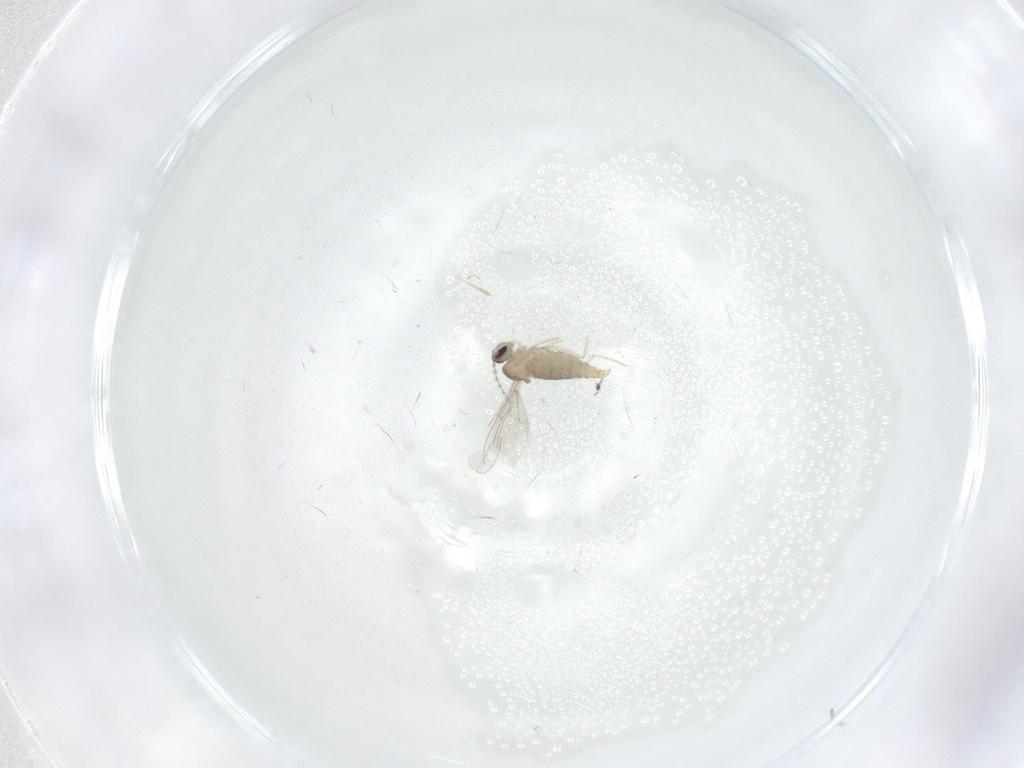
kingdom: Animalia
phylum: Arthropoda
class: Insecta
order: Diptera
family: Cecidomyiidae
